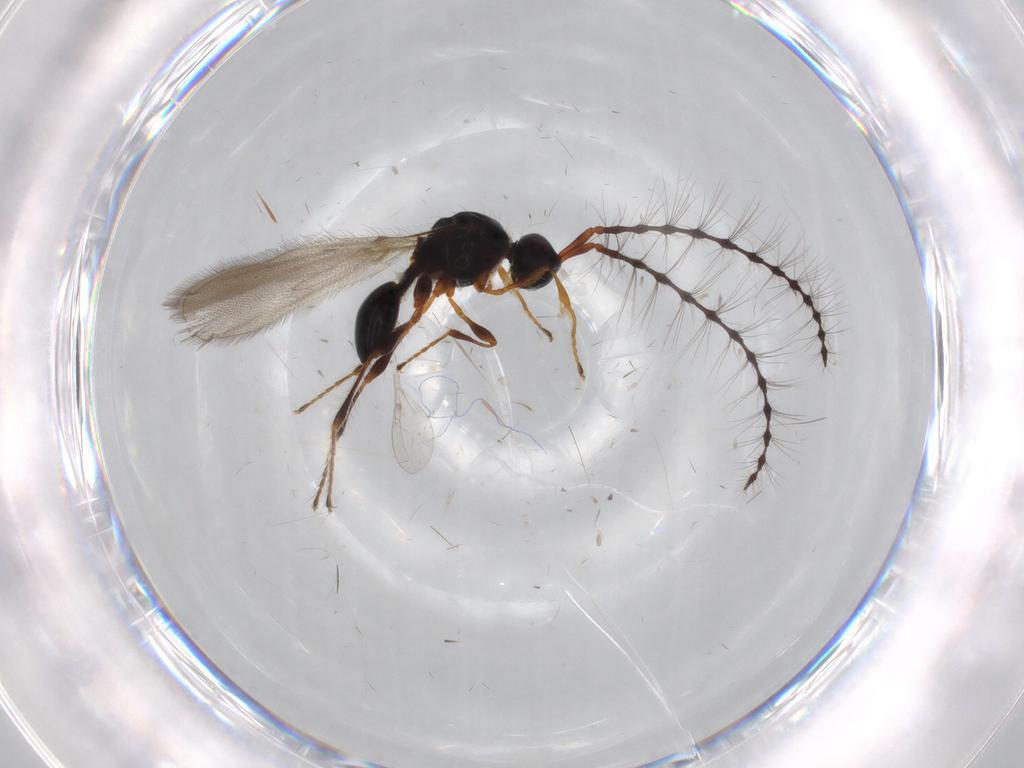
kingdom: Animalia
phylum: Arthropoda
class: Insecta
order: Hymenoptera
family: Diapriidae
